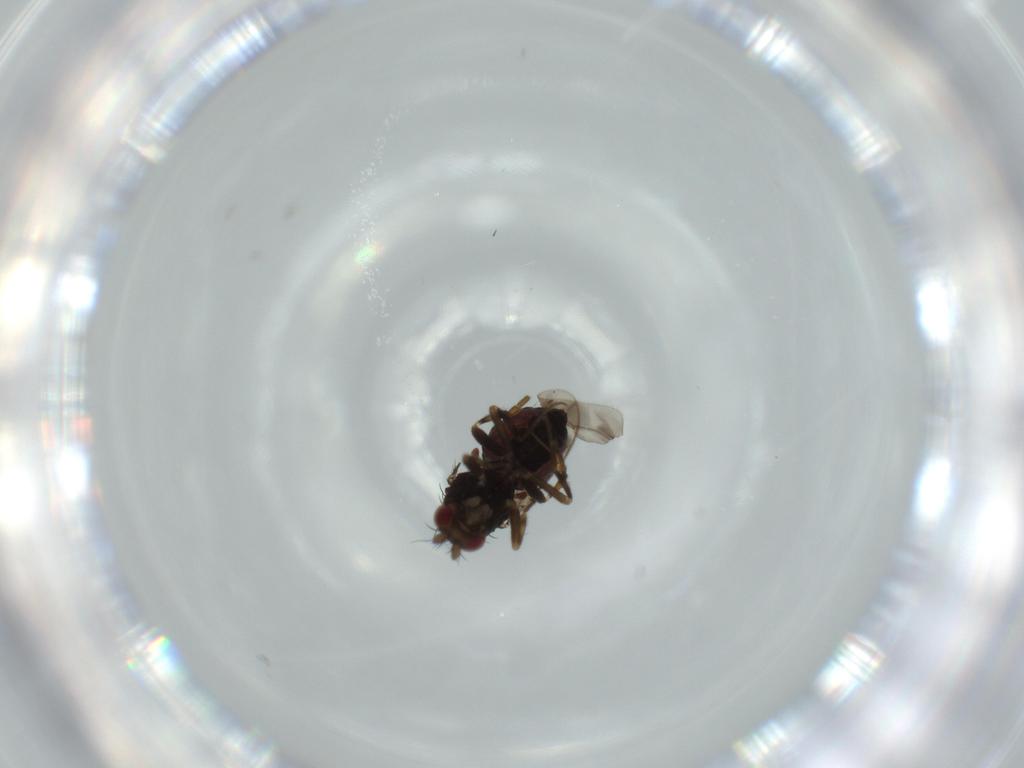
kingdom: Animalia
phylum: Arthropoda
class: Insecta
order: Diptera
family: Sphaeroceridae
